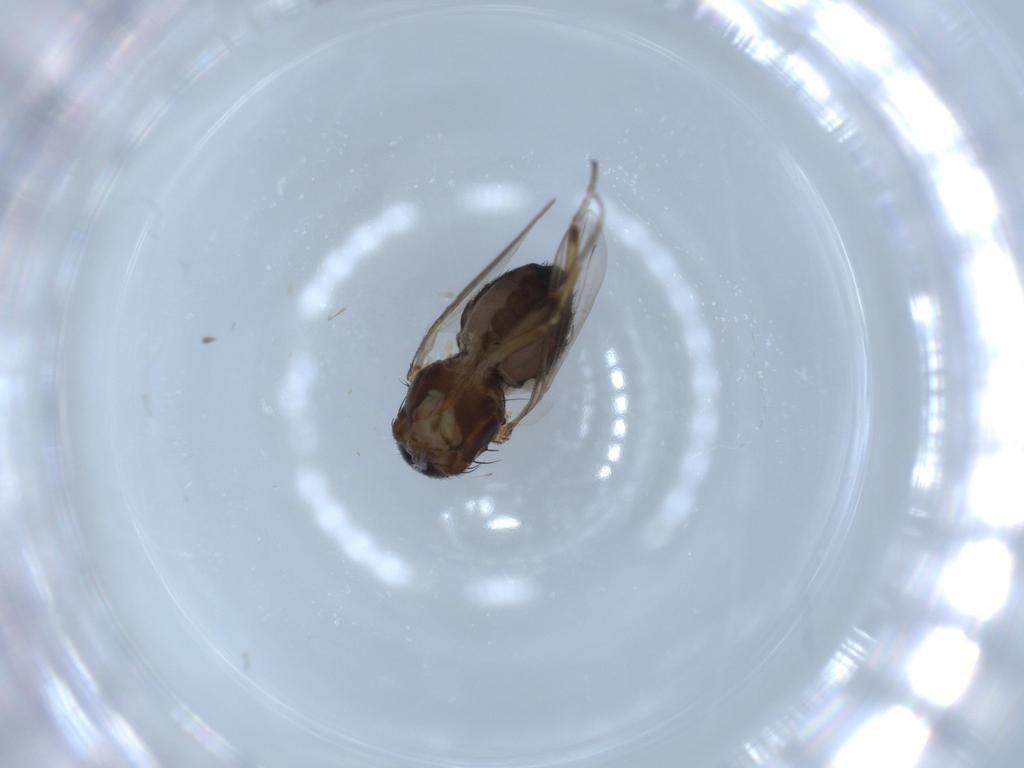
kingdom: Animalia
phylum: Arthropoda
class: Insecta
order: Diptera
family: Heleomyzidae
